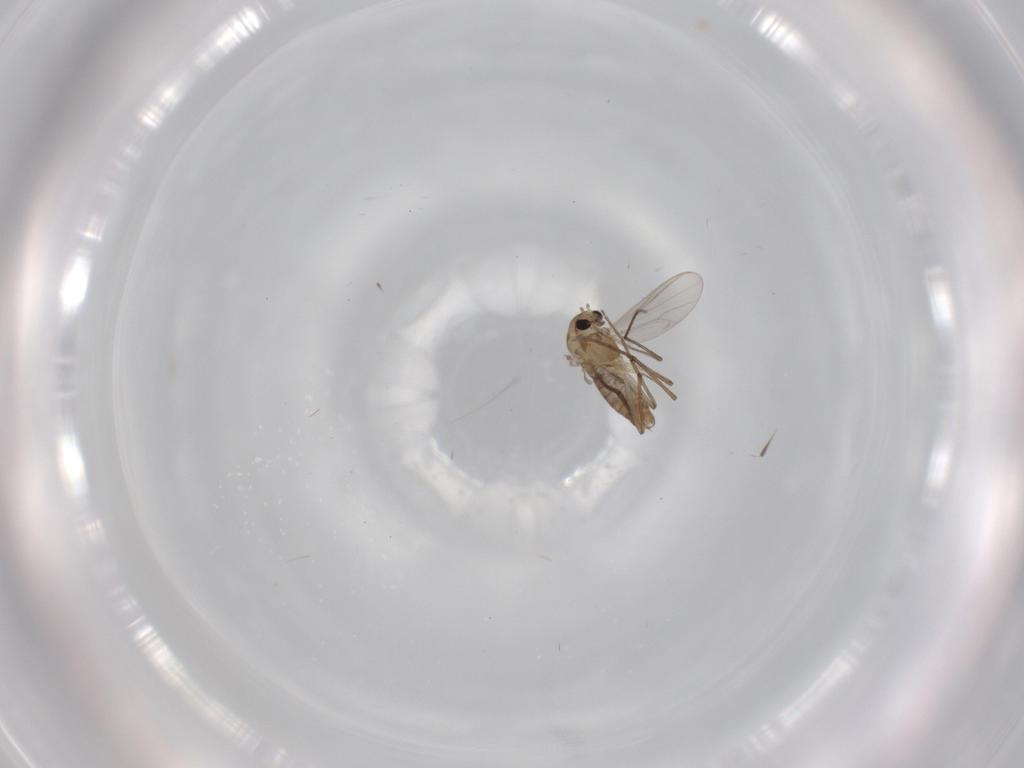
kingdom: Animalia
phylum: Arthropoda
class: Insecta
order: Diptera
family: Chironomidae
